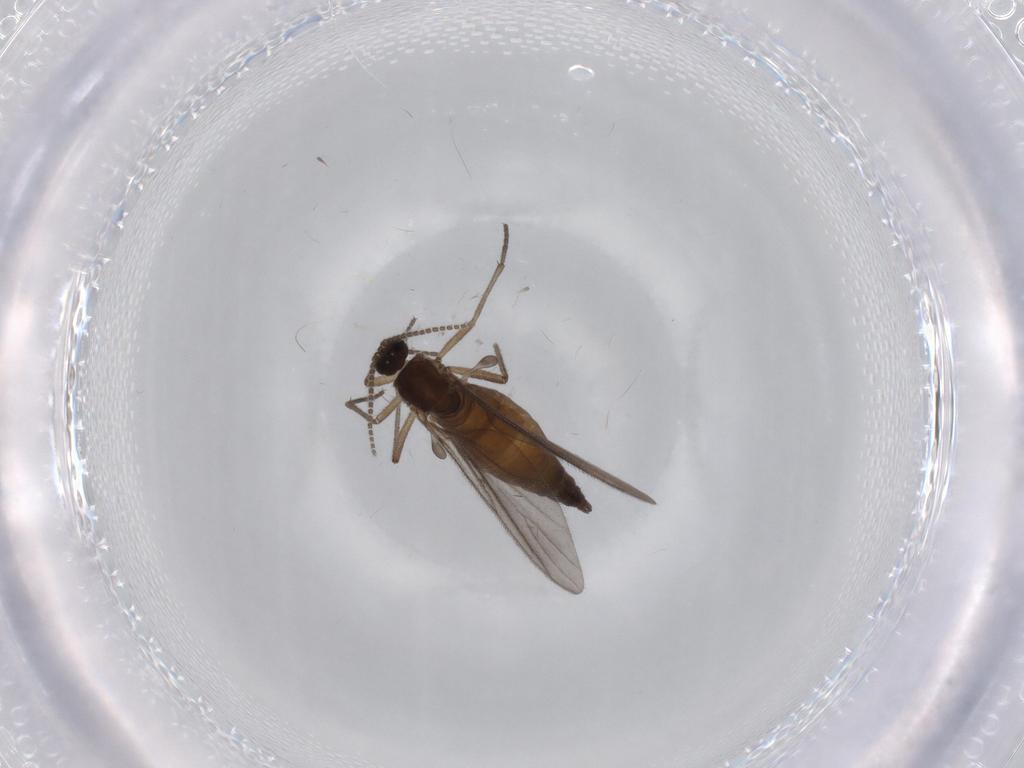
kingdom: Animalia
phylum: Arthropoda
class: Insecta
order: Diptera
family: Sciaridae
